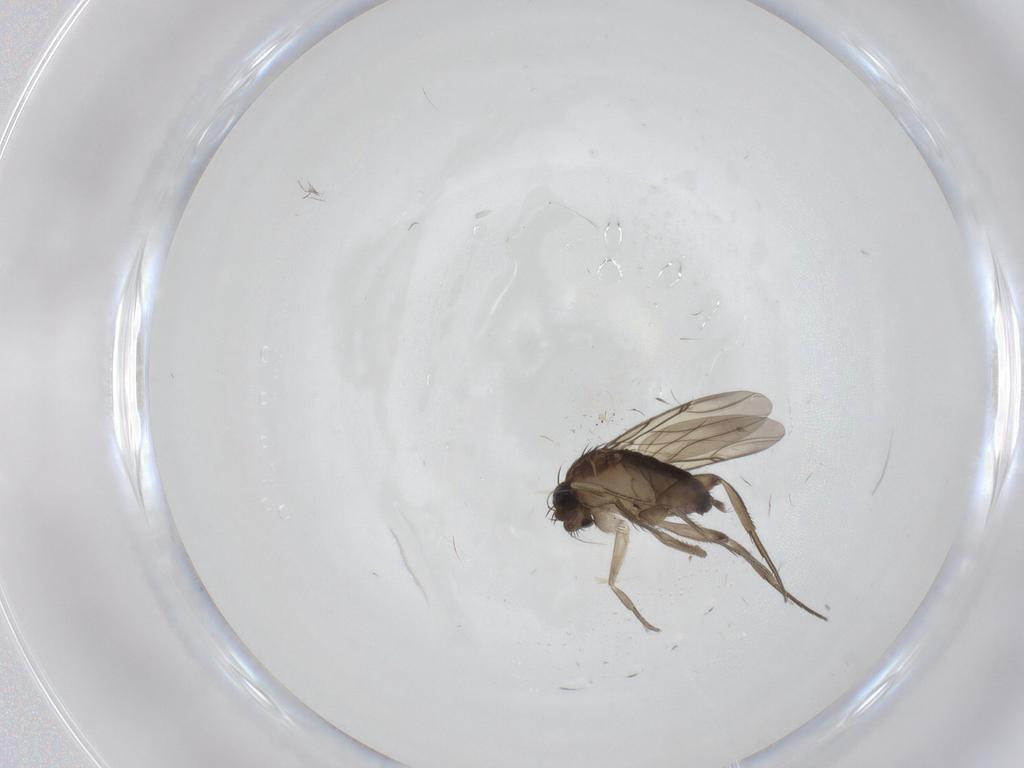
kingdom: Animalia
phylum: Arthropoda
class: Insecta
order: Diptera
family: Phoridae
